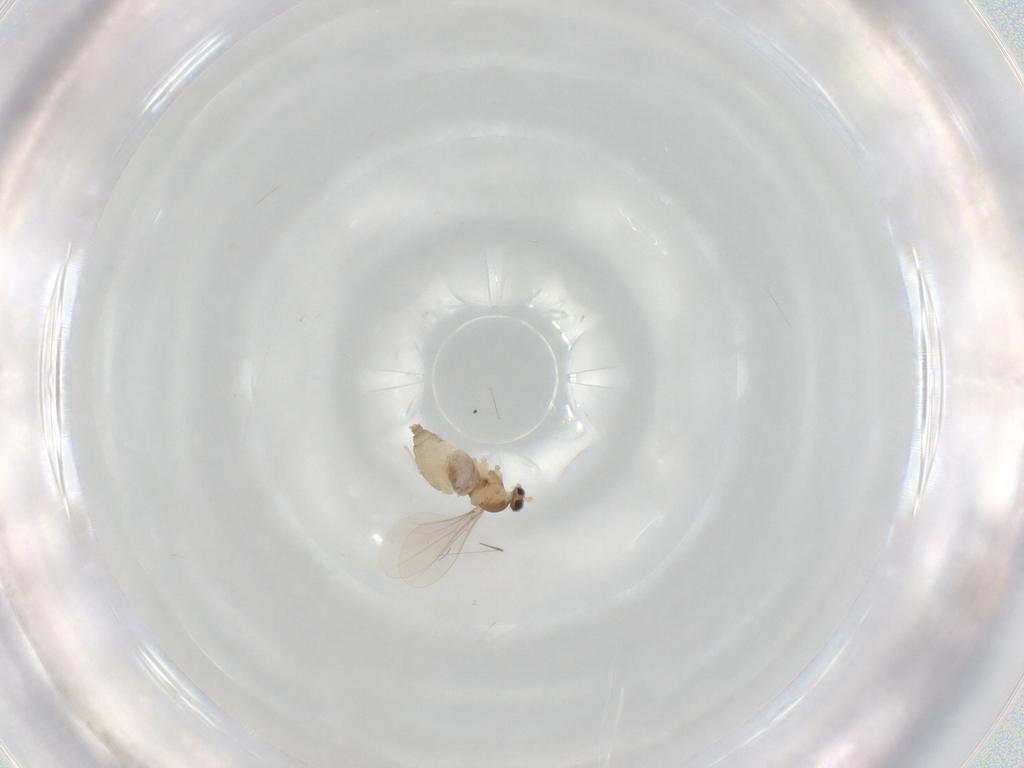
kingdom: Animalia
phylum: Arthropoda
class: Insecta
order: Diptera
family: Cecidomyiidae
